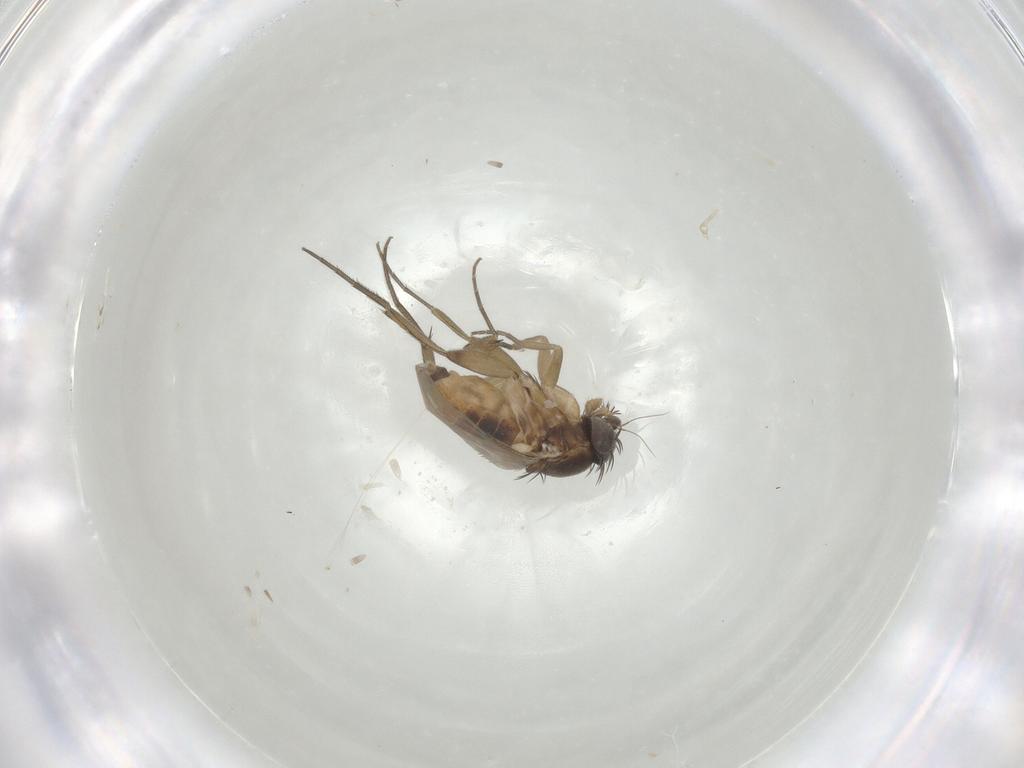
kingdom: Animalia
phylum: Arthropoda
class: Insecta
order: Diptera
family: Phoridae
